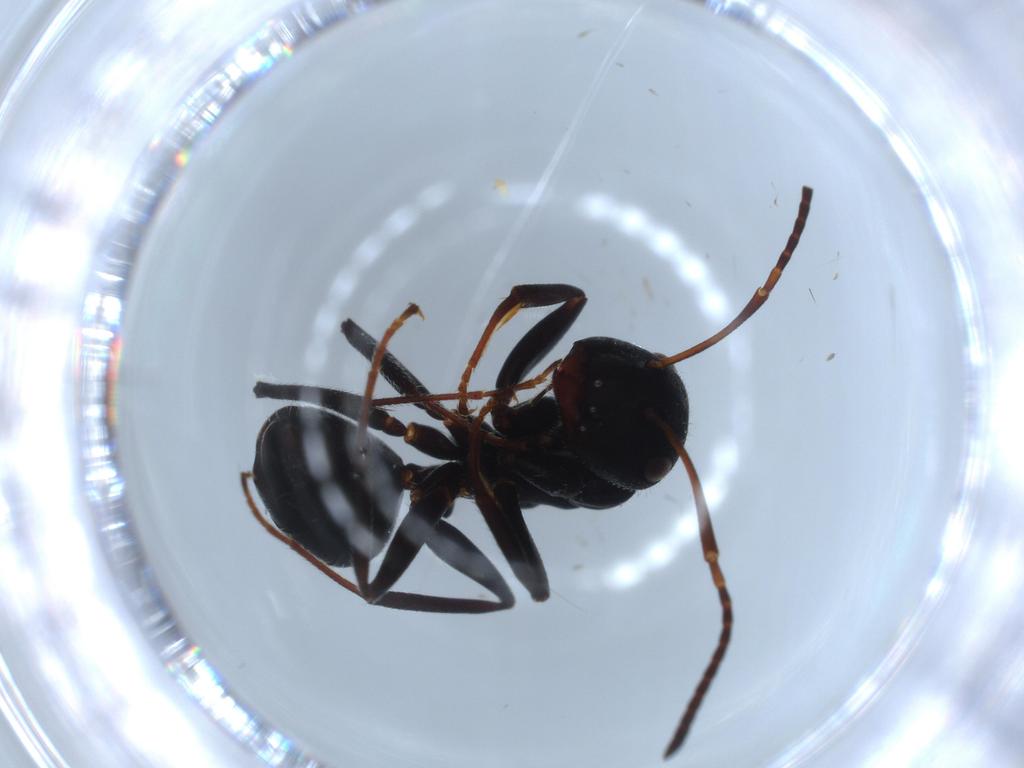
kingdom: Animalia
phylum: Arthropoda
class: Insecta
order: Hymenoptera
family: Formicidae
